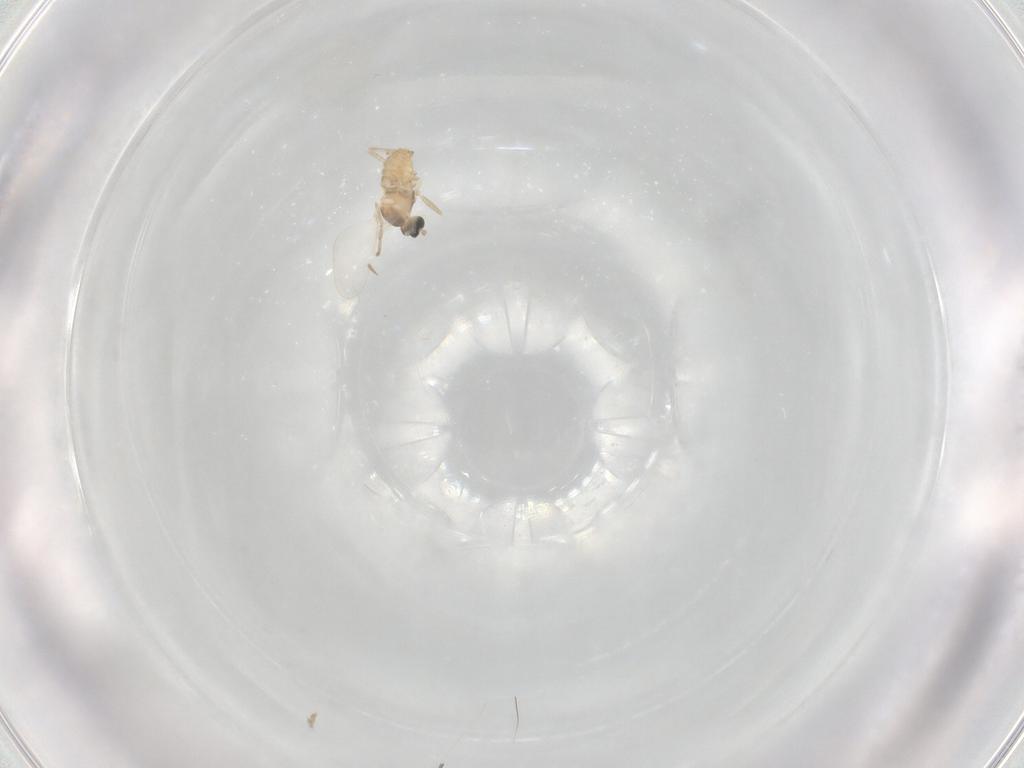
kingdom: Animalia
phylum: Arthropoda
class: Insecta
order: Diptera
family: Cecidomyiidae
